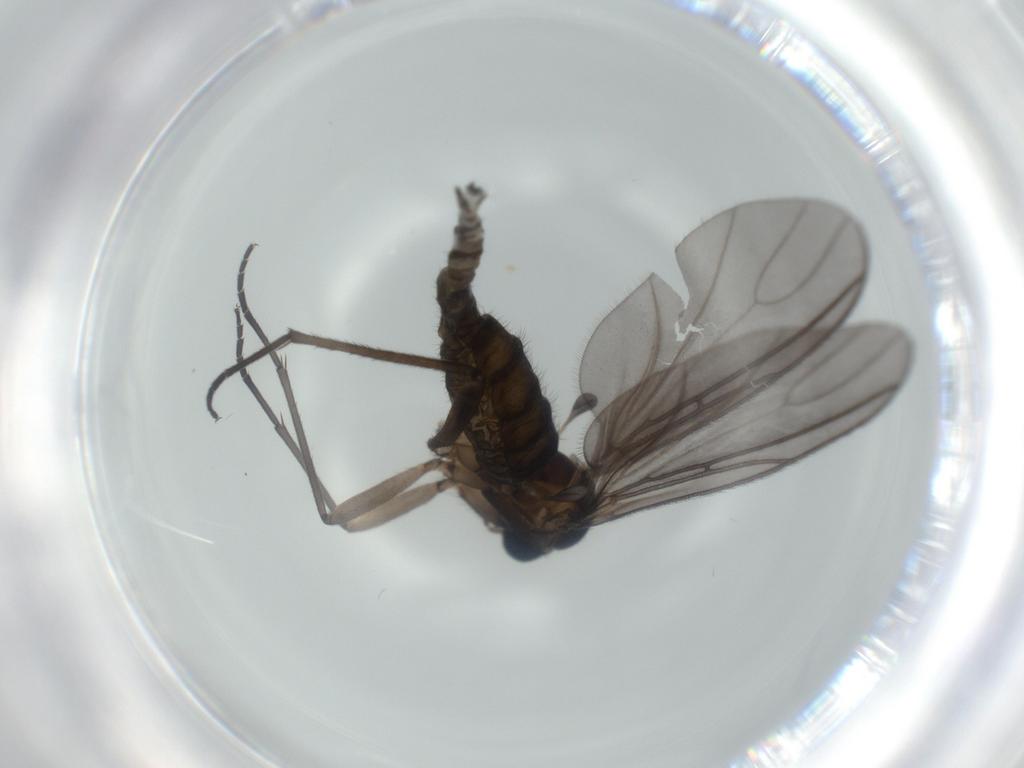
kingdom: Animalia
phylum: Arthropoda
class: Insecta
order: Diptera
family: Sciaridae
